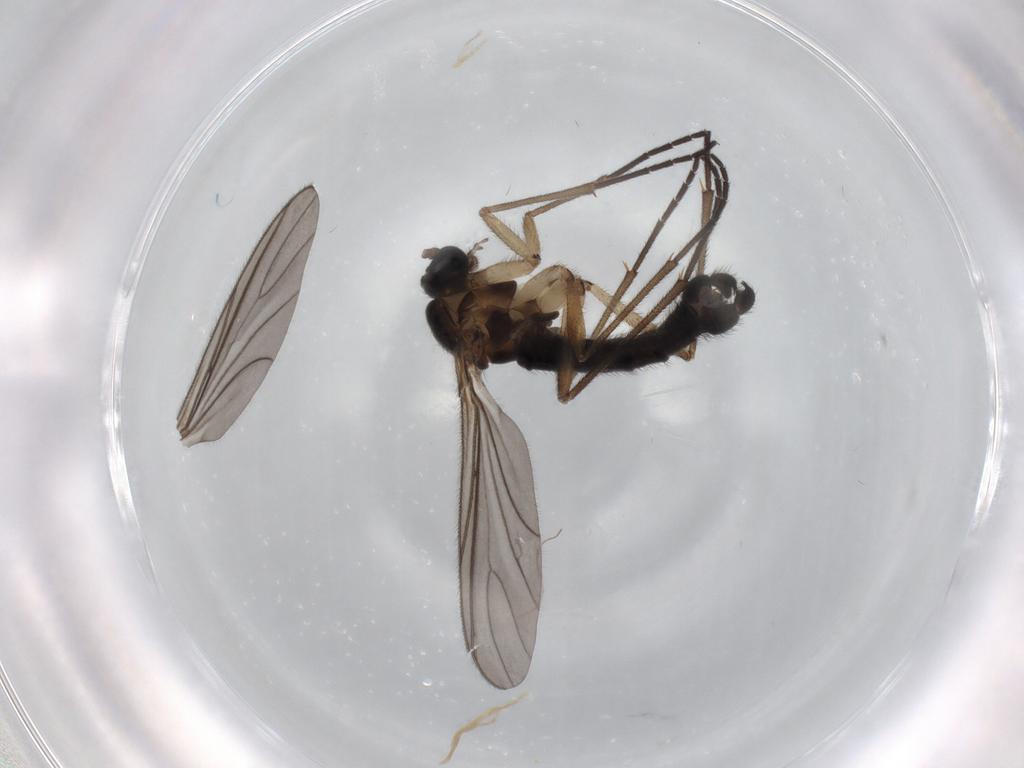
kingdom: Animalia
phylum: Arthropoda
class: Insecta
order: Diptera
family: Sciaridae
